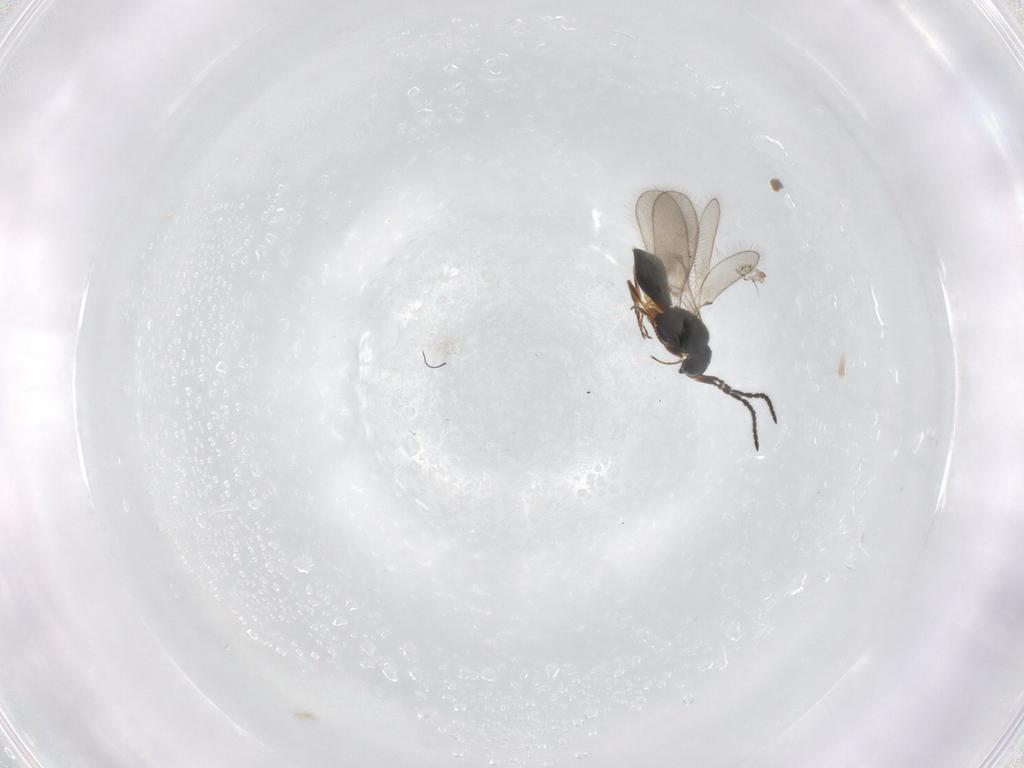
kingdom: Animalia
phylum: Arthropoda
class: Insecta
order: Hymenoptera
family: Scelionidae
